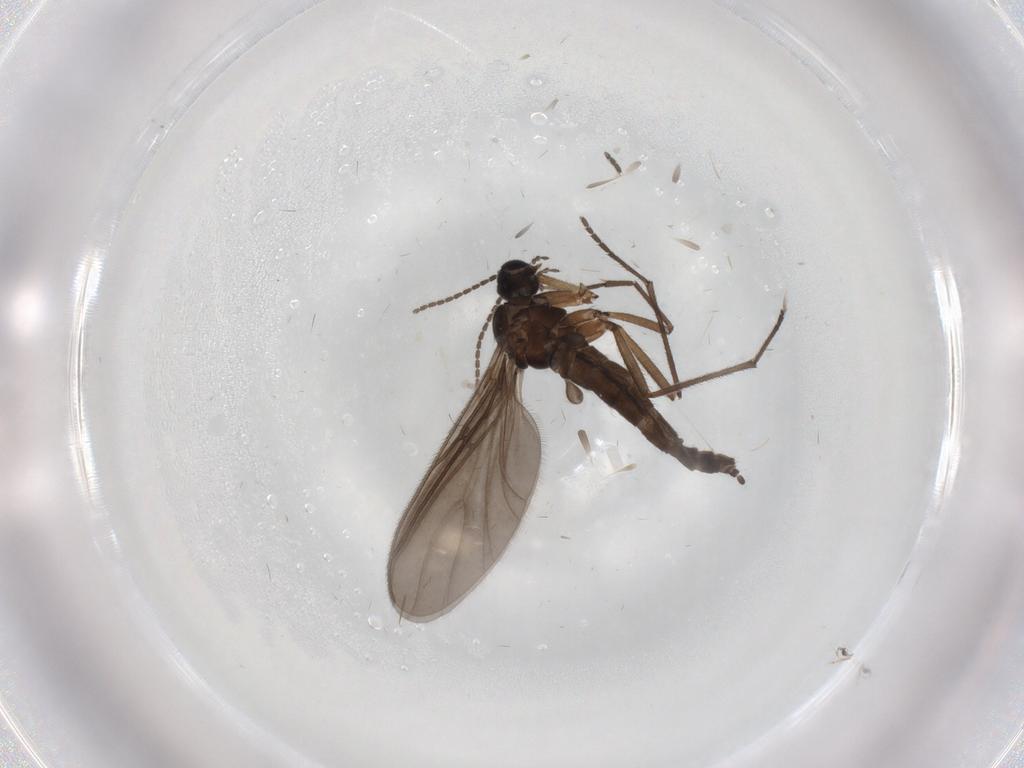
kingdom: Animalia
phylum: Arthropoda
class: Insecta
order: Diptera
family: Sciaridae
